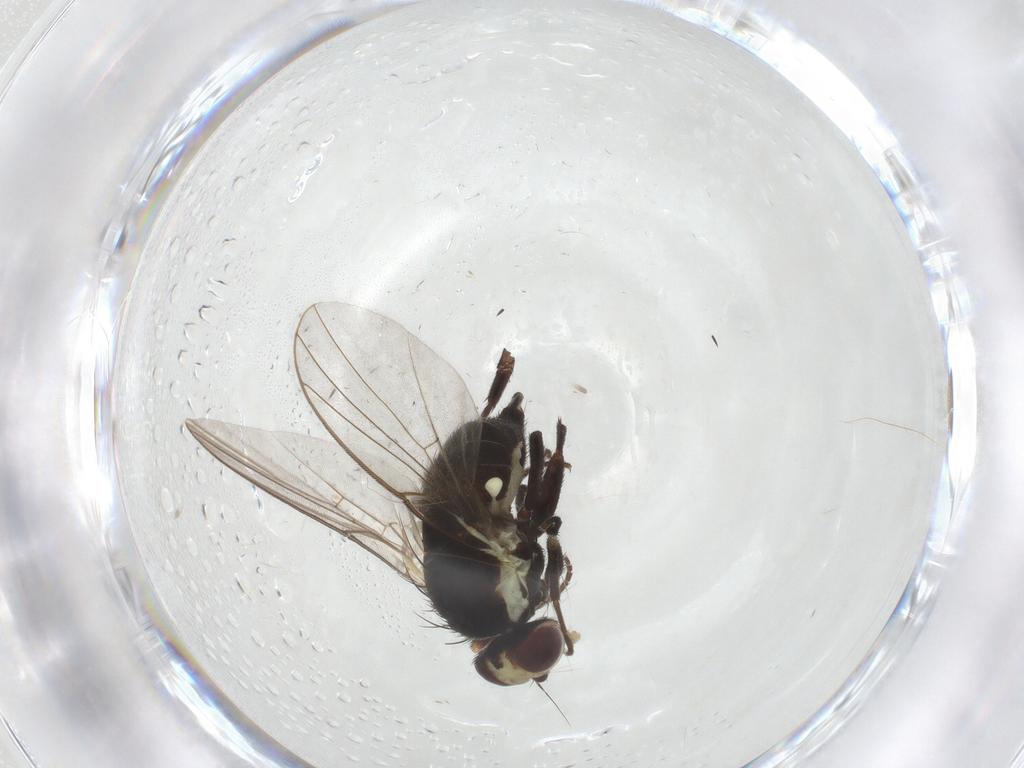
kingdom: Animalia
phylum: Arthropoda
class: Insecta
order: Diptera
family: Agromyzidae
